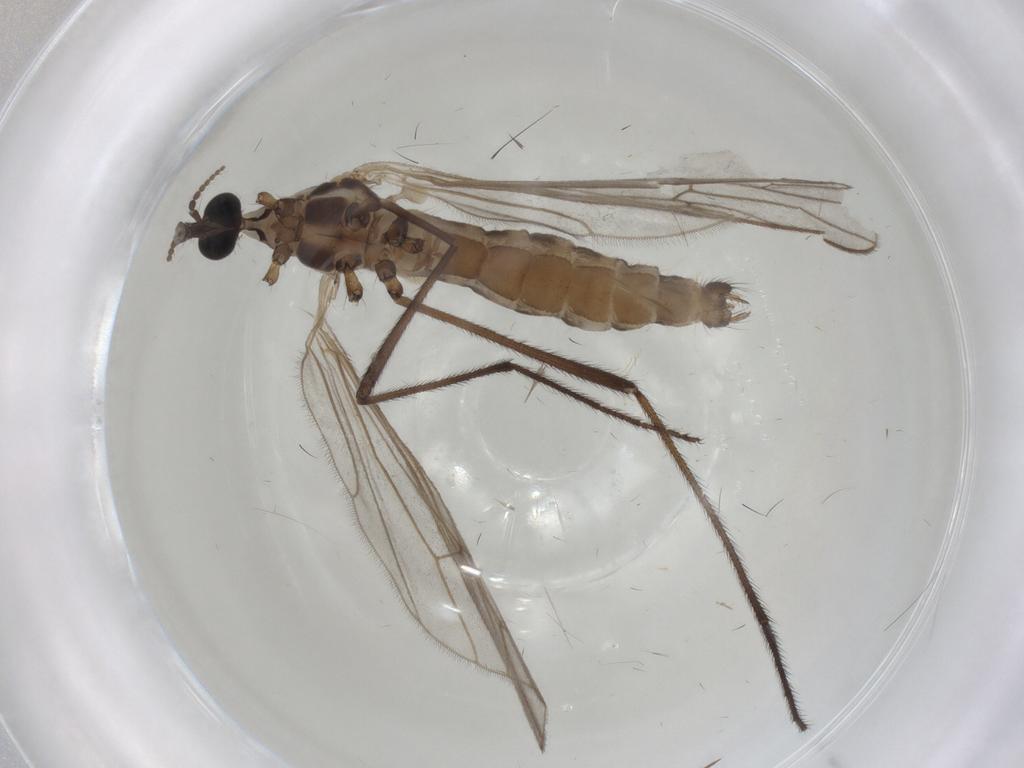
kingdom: Animalia
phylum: Arthropoda
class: Insecta
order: Diptera
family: Limoniidae
